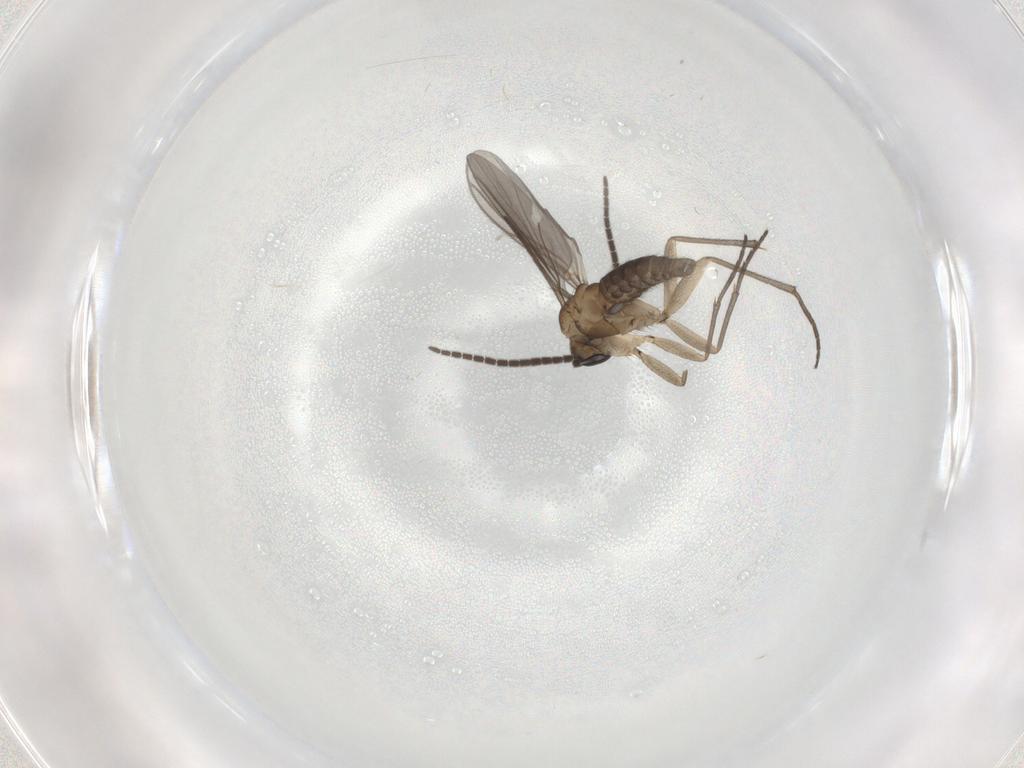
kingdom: Animalia
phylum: Arthropoda
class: Insecta
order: Diptera
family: Sciaridae
